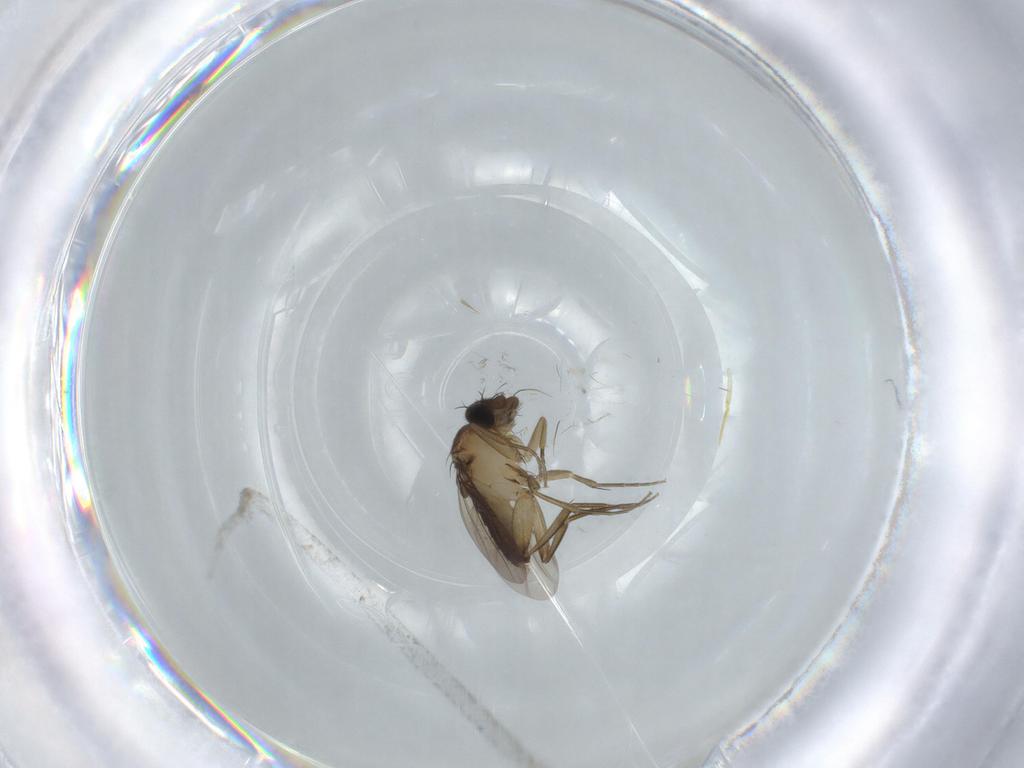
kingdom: Animalia
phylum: Arthropoda
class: Insecta
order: Diptera
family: Phoridae
